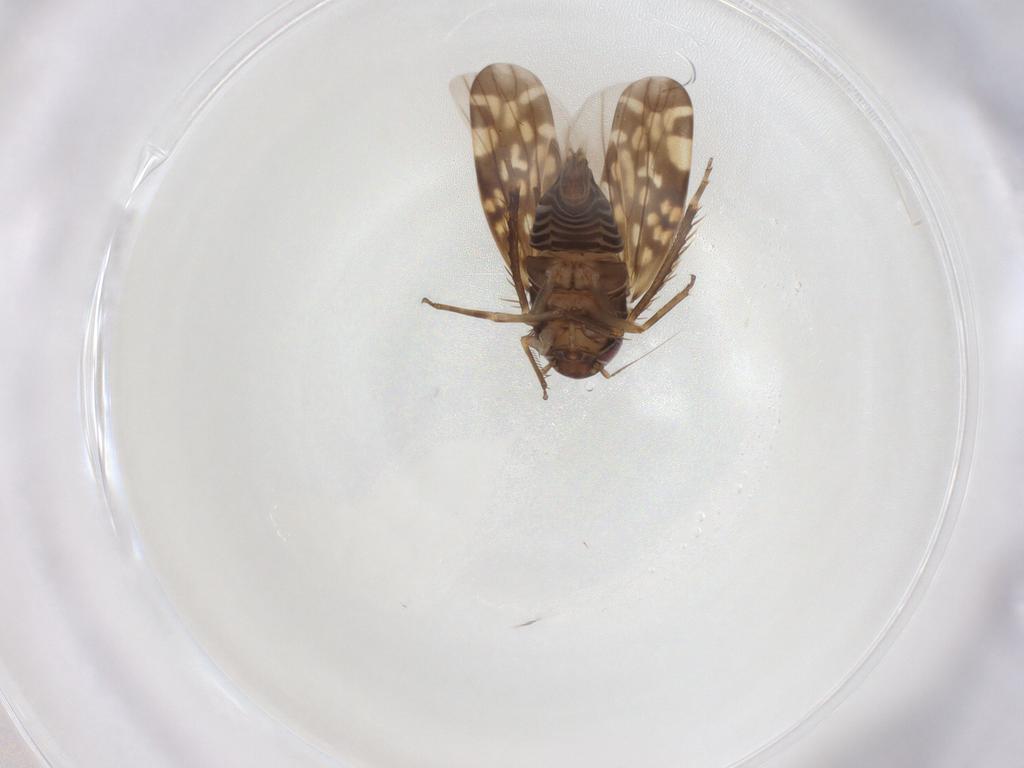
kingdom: Animalia
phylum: Arthropoda
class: Insecta
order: Hemiptera
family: Cicadellidae
